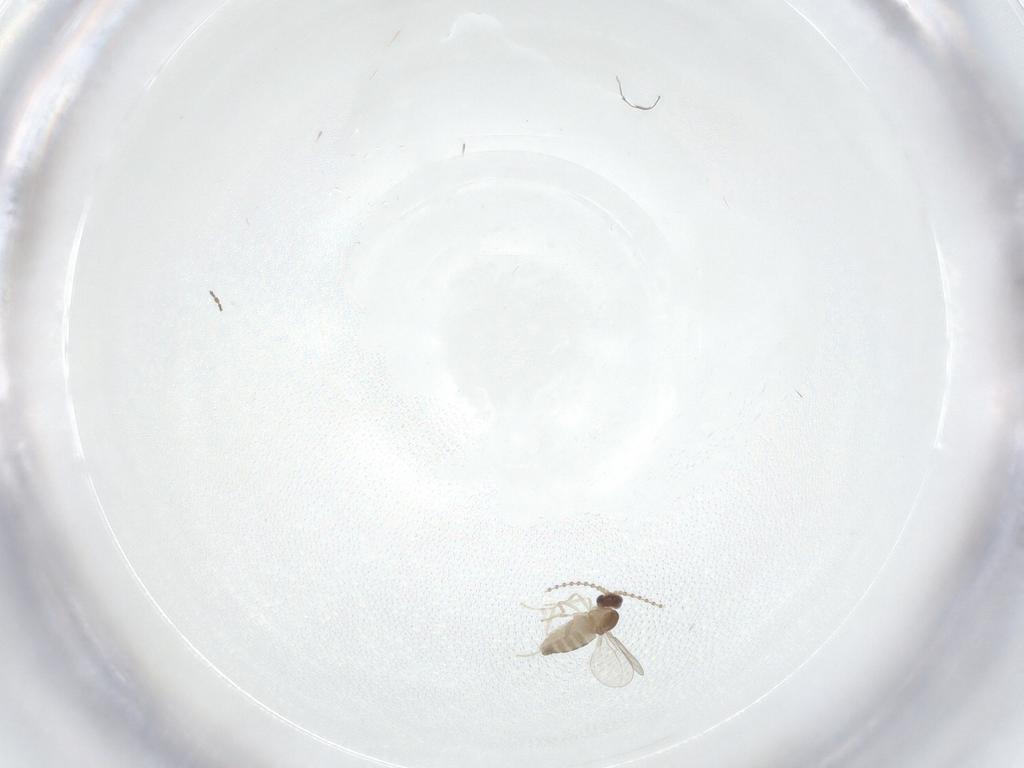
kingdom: Animalia
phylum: Arthropoda
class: Insecta
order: Diptera
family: Cecidomyiidae
